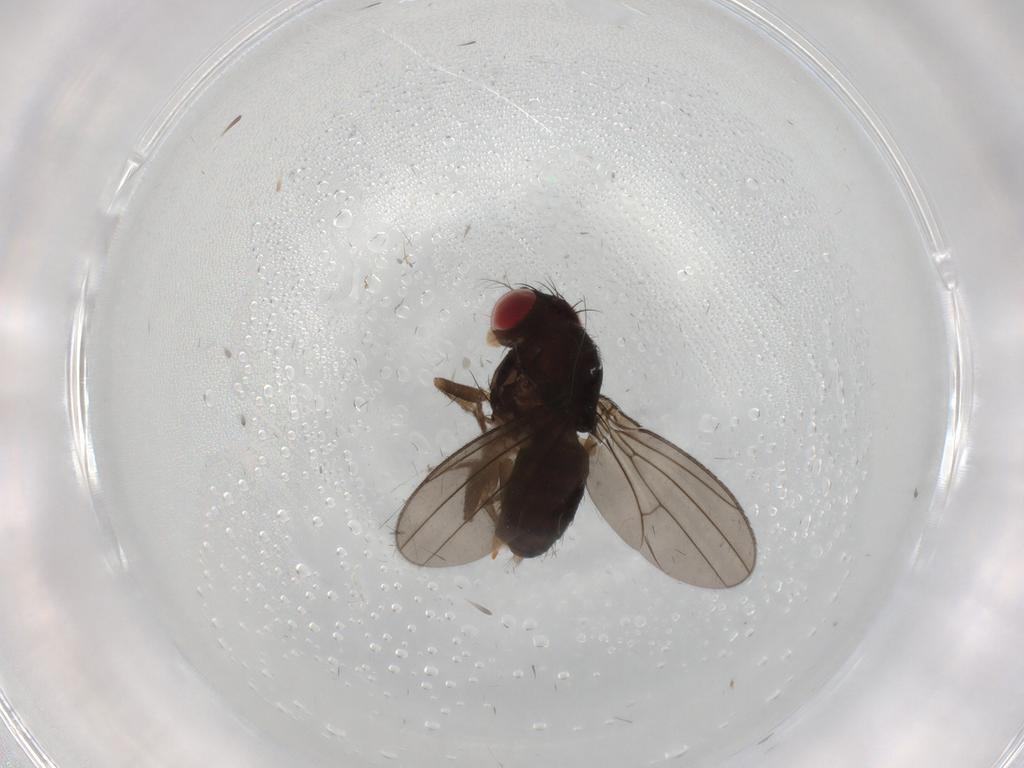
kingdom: Animalia
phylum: Arthropoda
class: Insecta
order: Diptera
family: Drosophilidae
